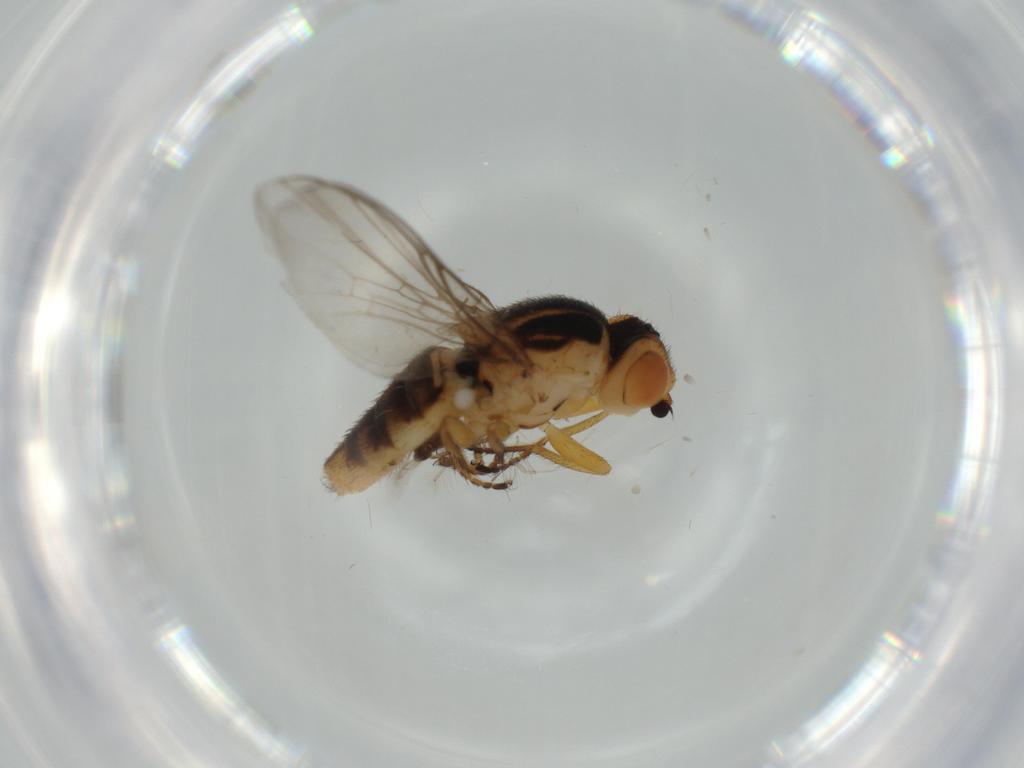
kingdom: Animalia
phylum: Arthropoda
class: Insecta
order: Diptera
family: Chloropidae
